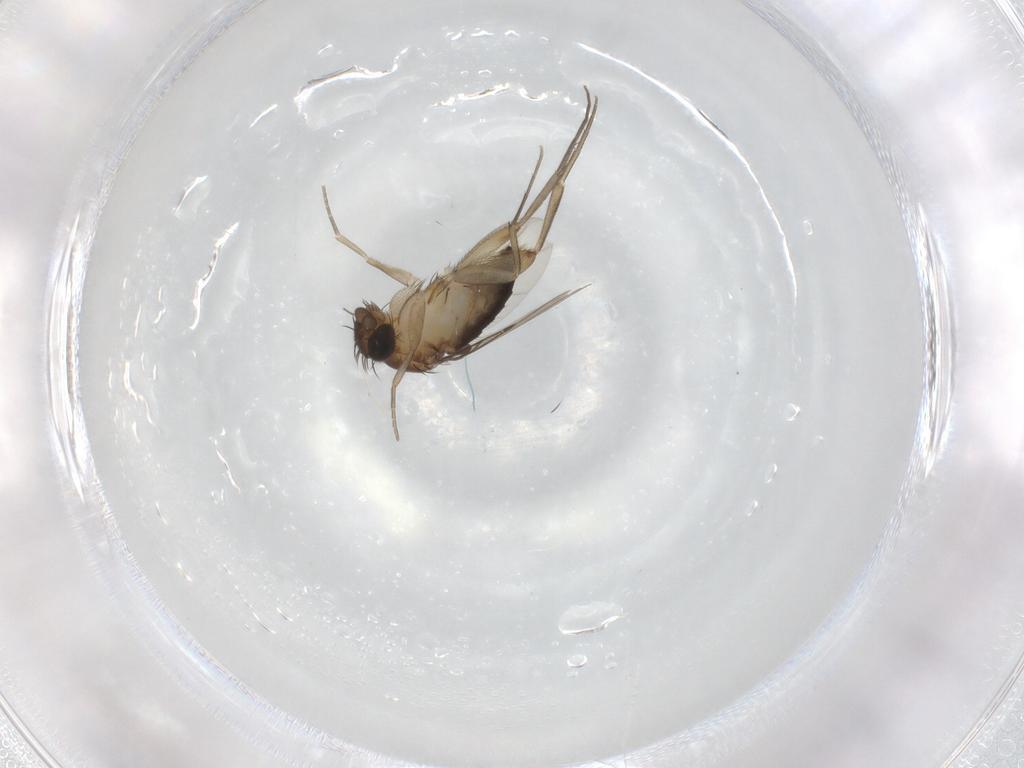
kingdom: Animalia
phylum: Arthropoda
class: Insecta
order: Diptera
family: Phoridae
